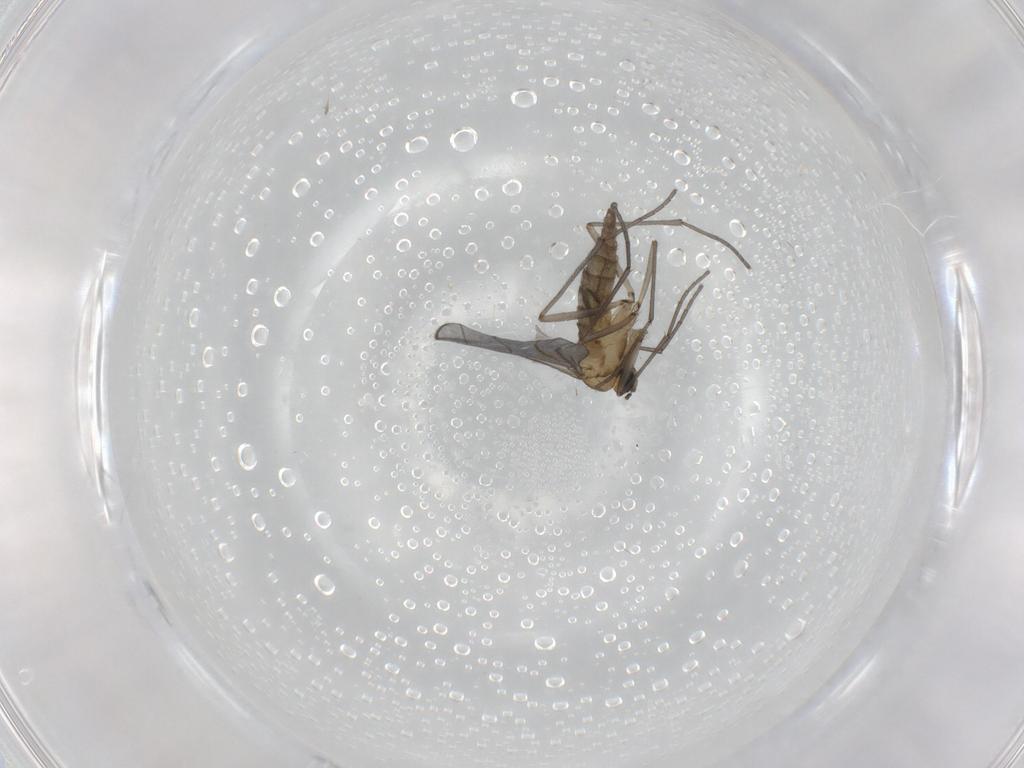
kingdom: Animalia
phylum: Arthropoda
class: Insecta
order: Diptera
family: Sciaridae
